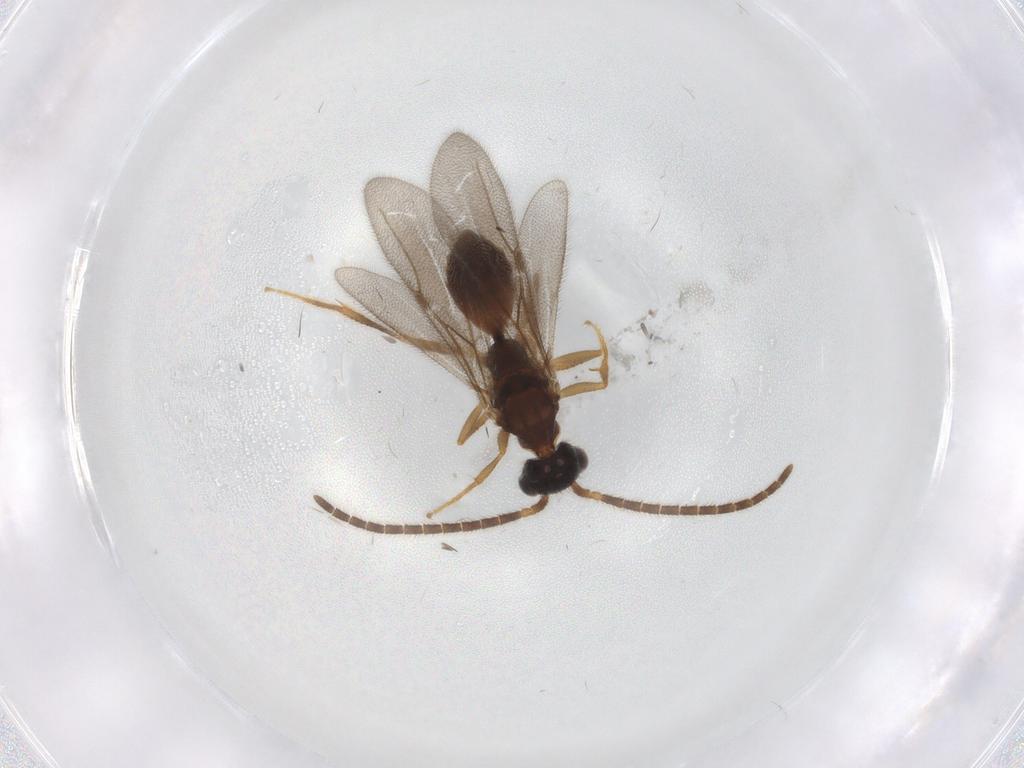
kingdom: Animalia
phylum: Arthropoda
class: Insecta
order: Hymenoptera
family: Bethylidae
